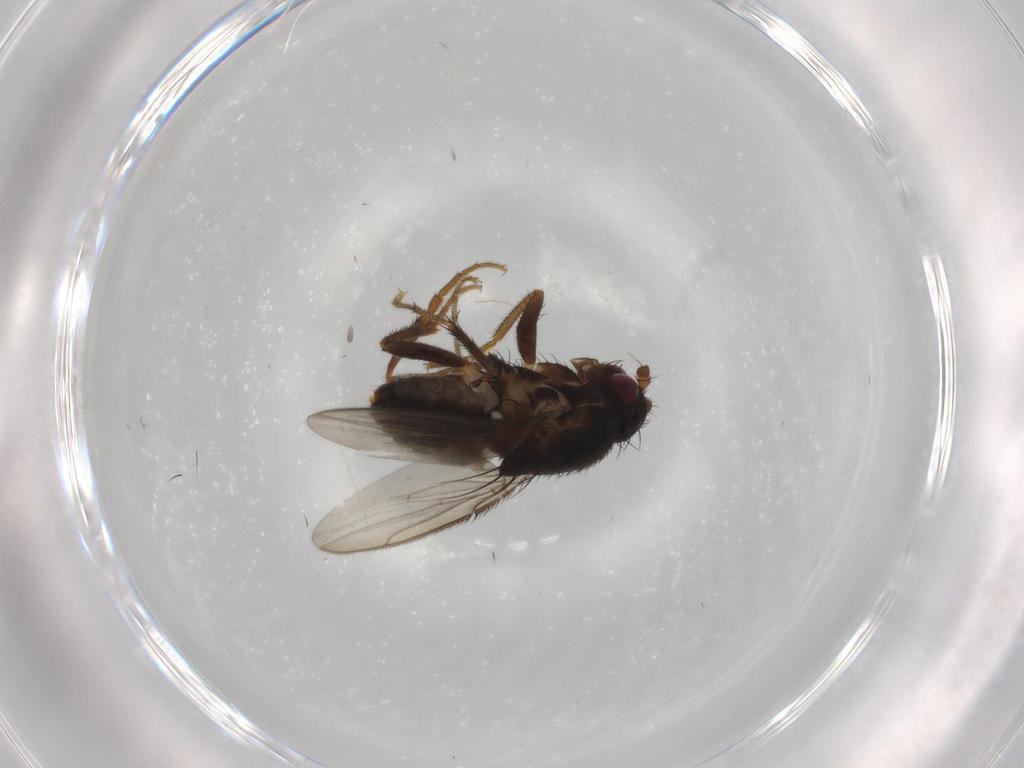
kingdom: Animalia
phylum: Arthropoda
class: Insecta
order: Diptera
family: Sphaeroceridae
